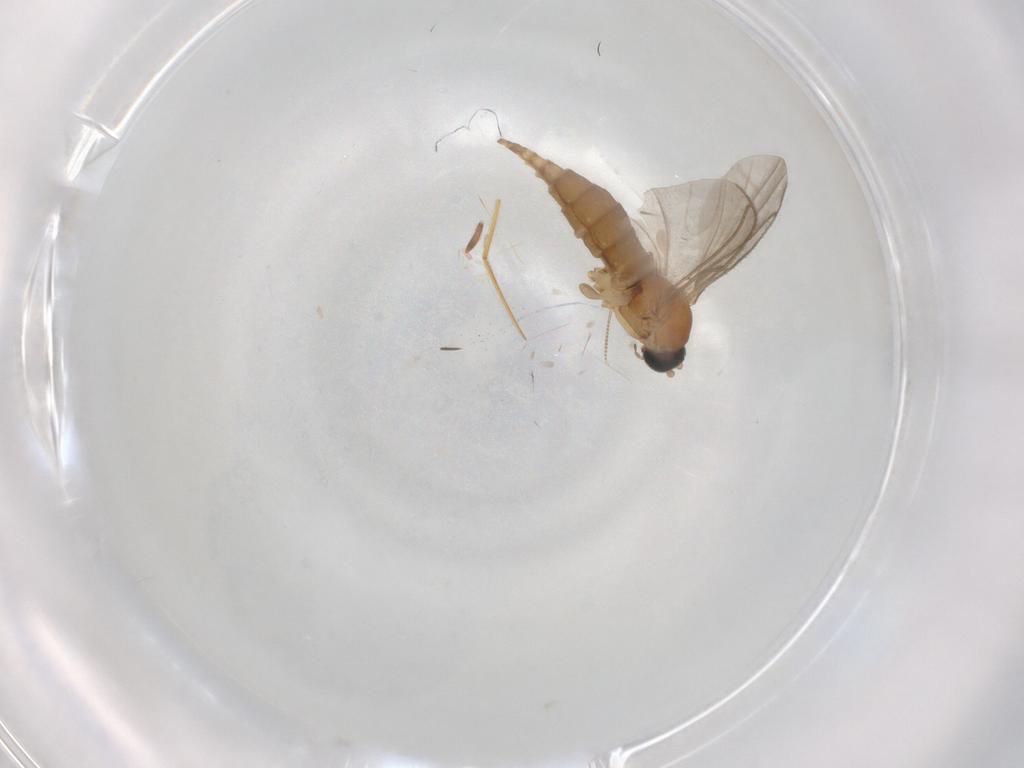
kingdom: Animalia
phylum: Arthropoda
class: Insecta
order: Diptera
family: Sciaridae
